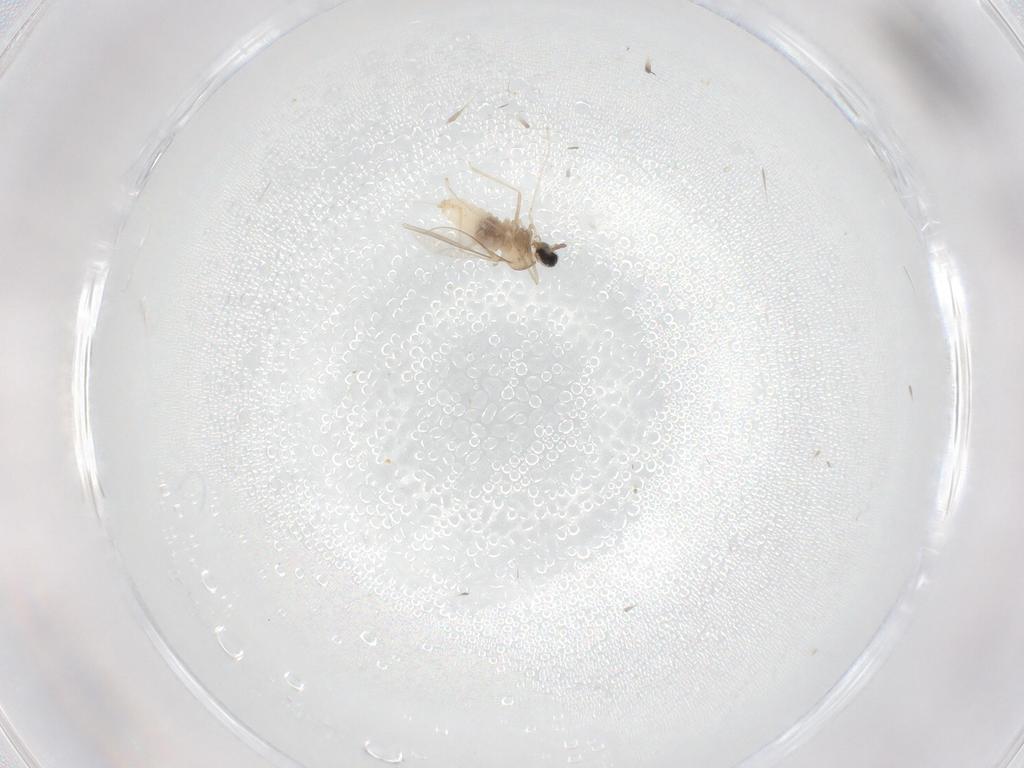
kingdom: Animalia
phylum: Arthropoda
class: Insecta
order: Diptera
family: Cecidomyiidae
